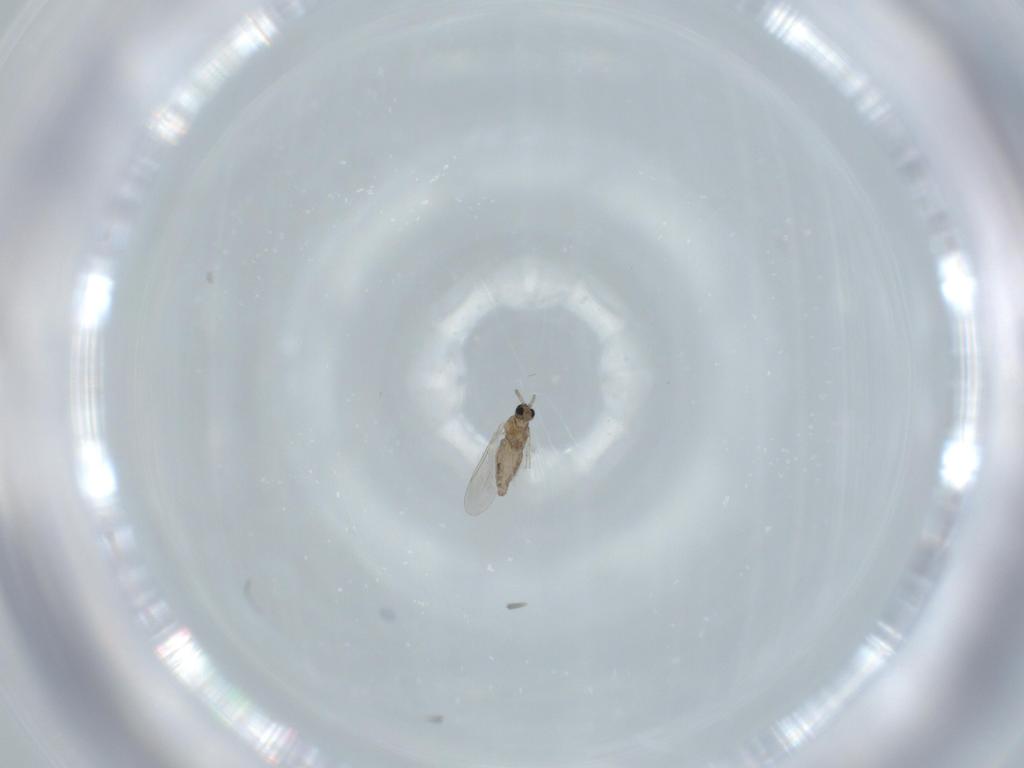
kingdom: Animalia
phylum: Arthropoda
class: Insecta
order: Diptera
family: Cecidomyiidae
